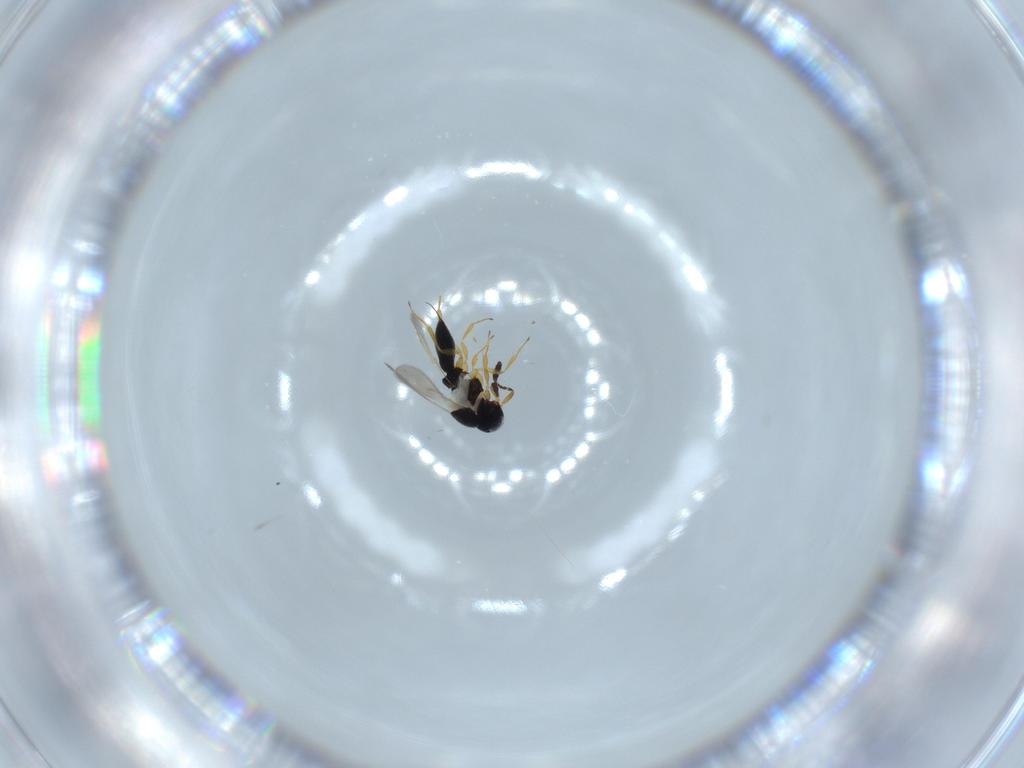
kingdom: Animalia
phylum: Arthropoda
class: Insecta
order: Hymenoptera
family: Scelionidae
